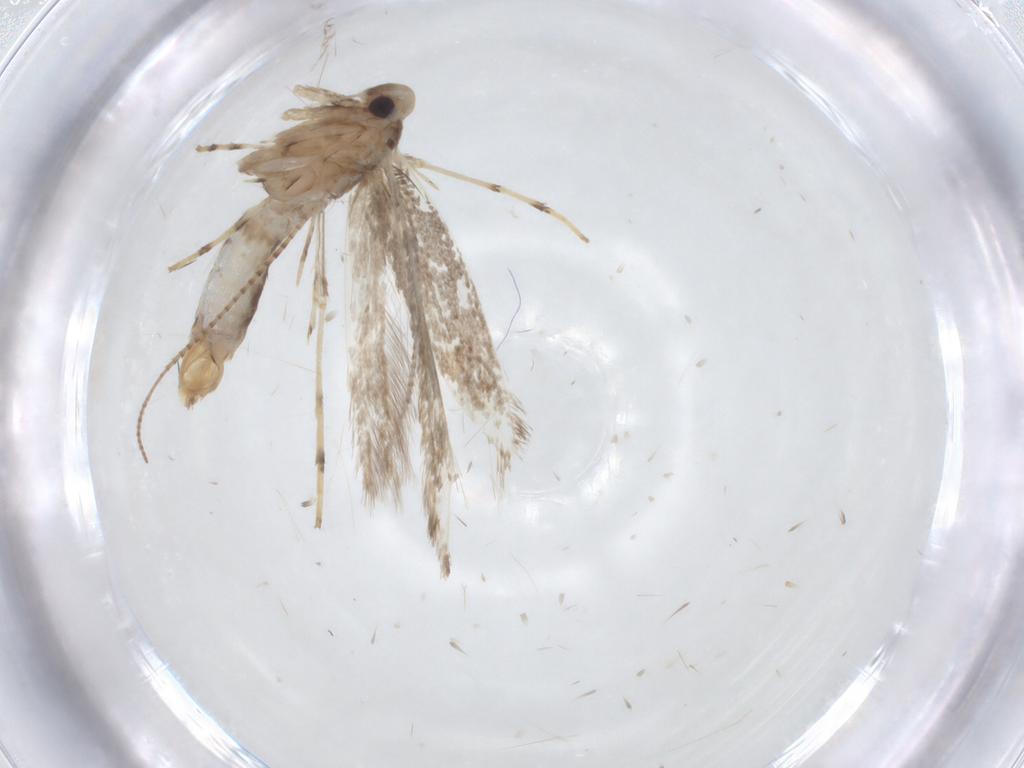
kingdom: Animalia
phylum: Arthropoda
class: Insecta
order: Lepidoptera
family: Gracillariidae
